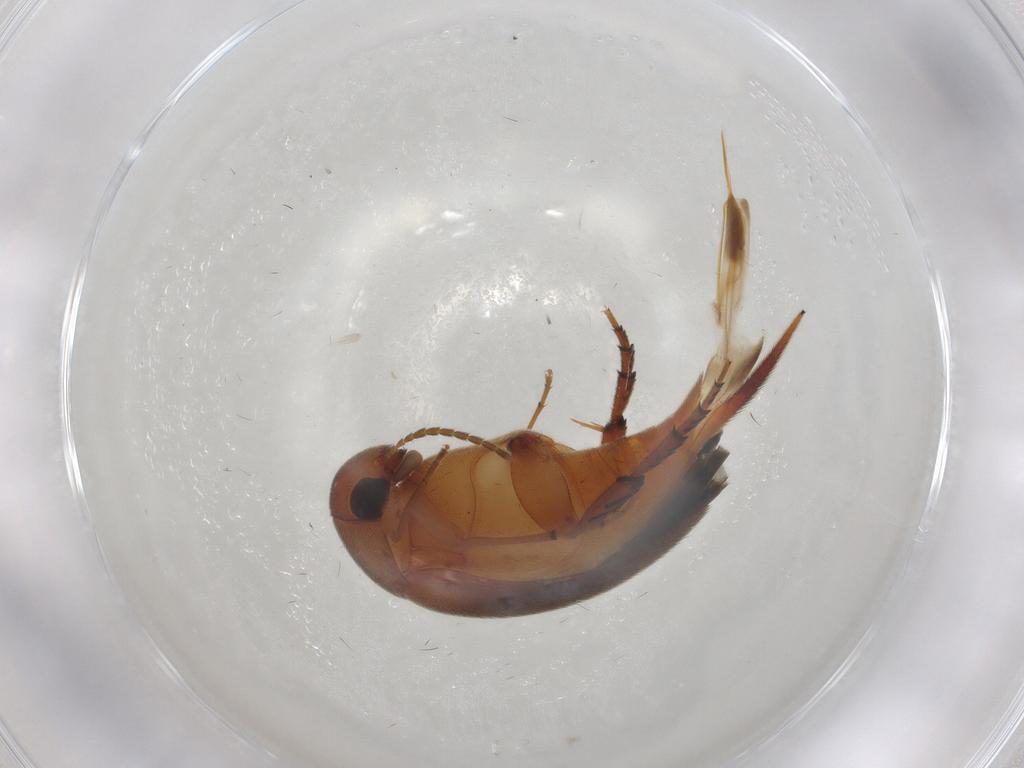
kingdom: Animalia
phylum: Arthropoda
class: Insecta
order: Coleoptera
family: Mordellidae
